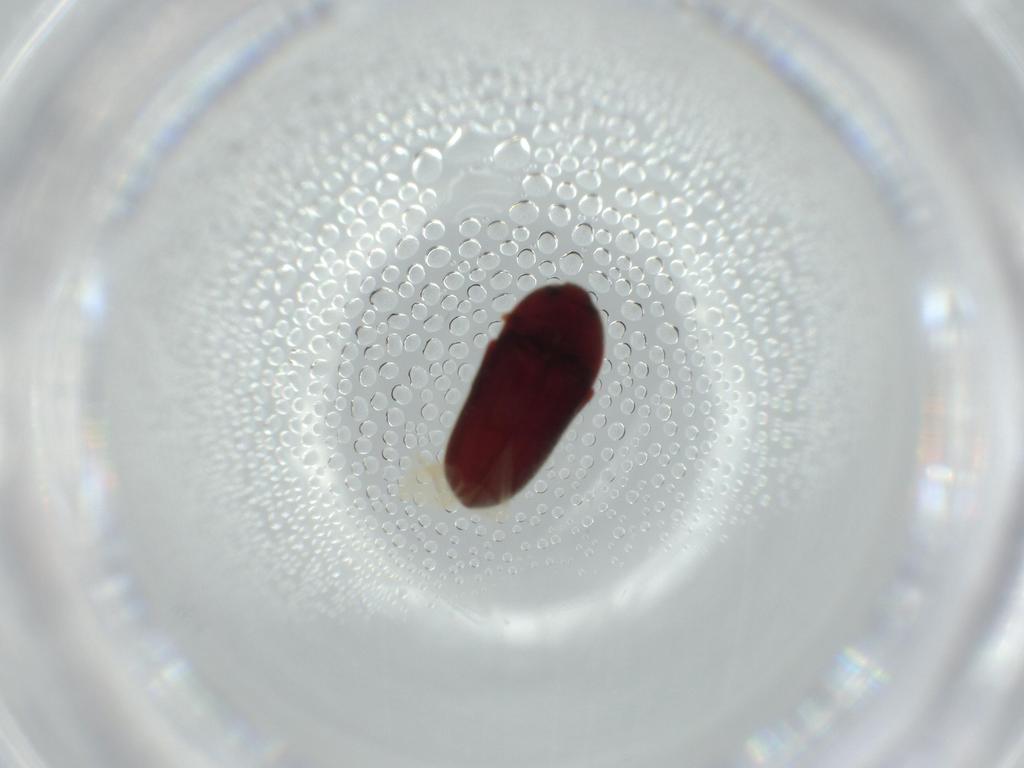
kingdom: Animalia
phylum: Arthropoda
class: Insecta
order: Coleoptera
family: Throscidae
